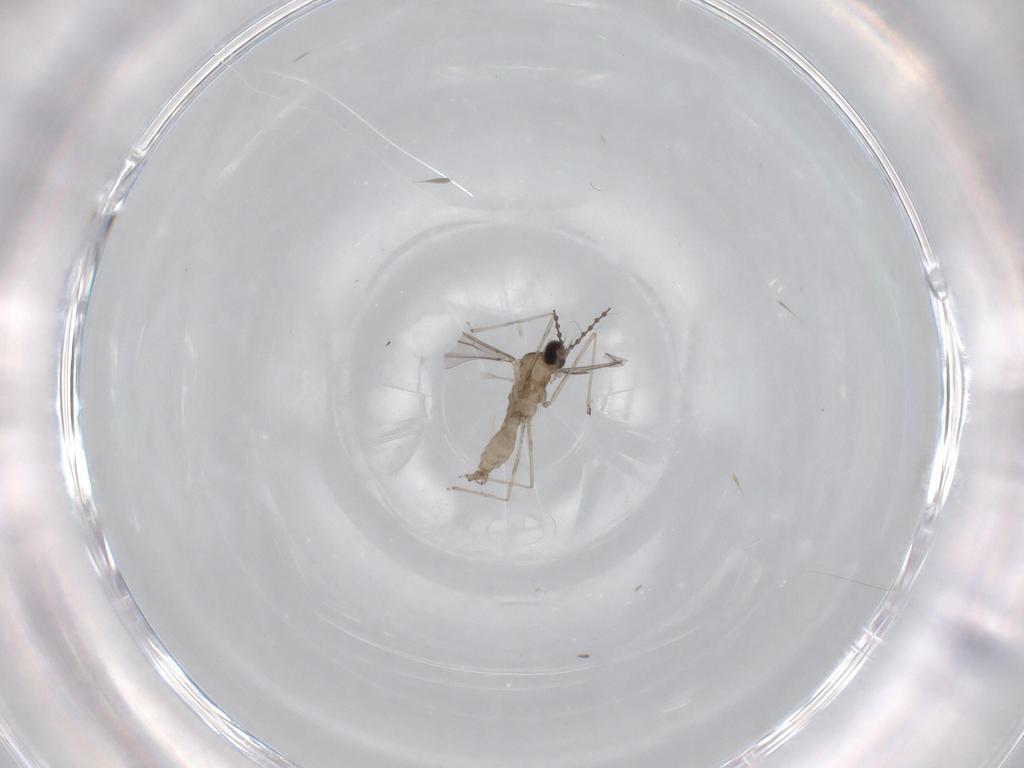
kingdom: Animalia
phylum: Arthropoda
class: Insecta
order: Diptera
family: Cecidomyiidae
